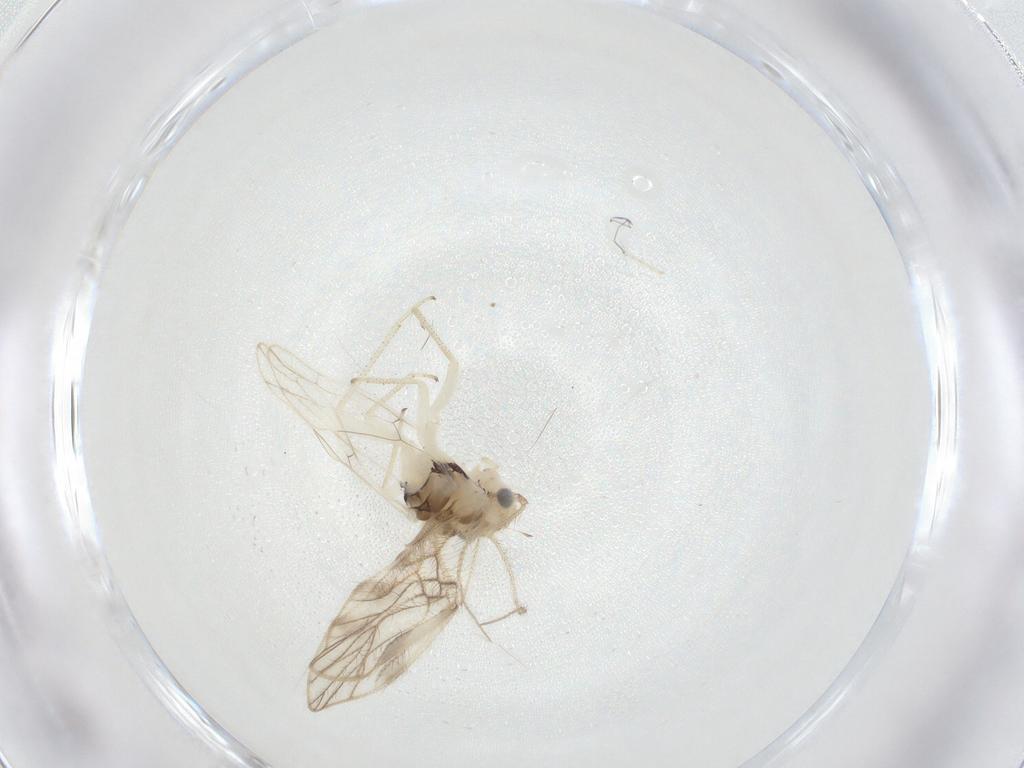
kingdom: Animalia
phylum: Arthropoda
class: Insecta
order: Psocodea
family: Caeciliusidae
